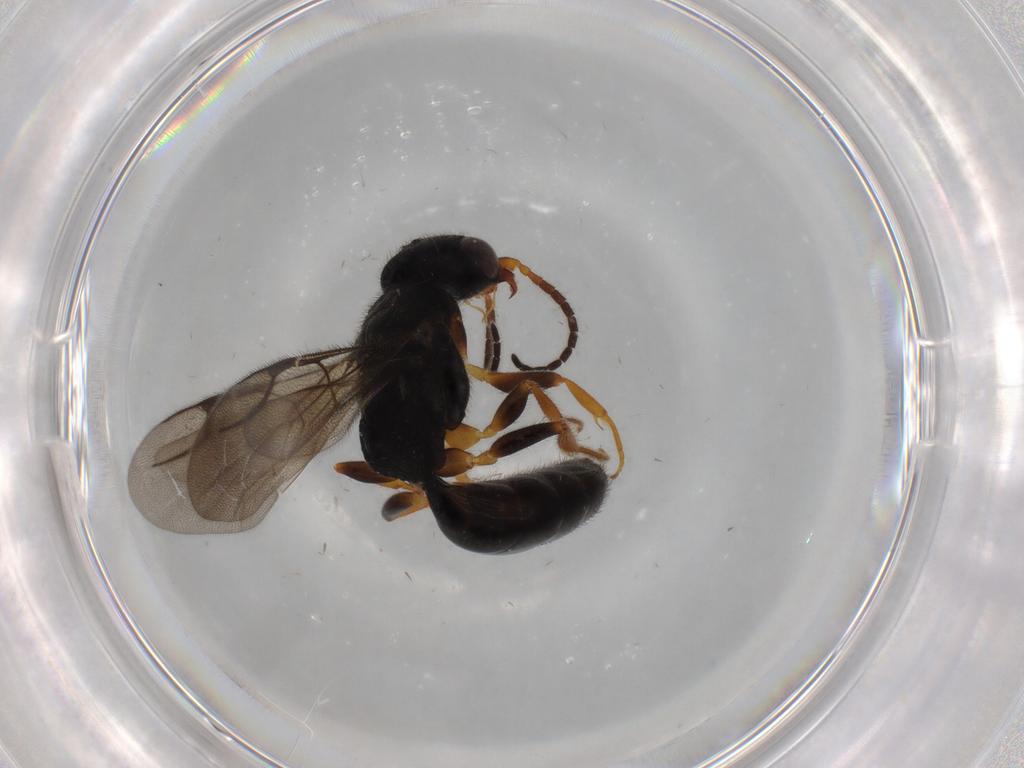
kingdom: Animalia
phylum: Arthropoda
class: Insecta
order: Hymenoptera
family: Bethylidae
